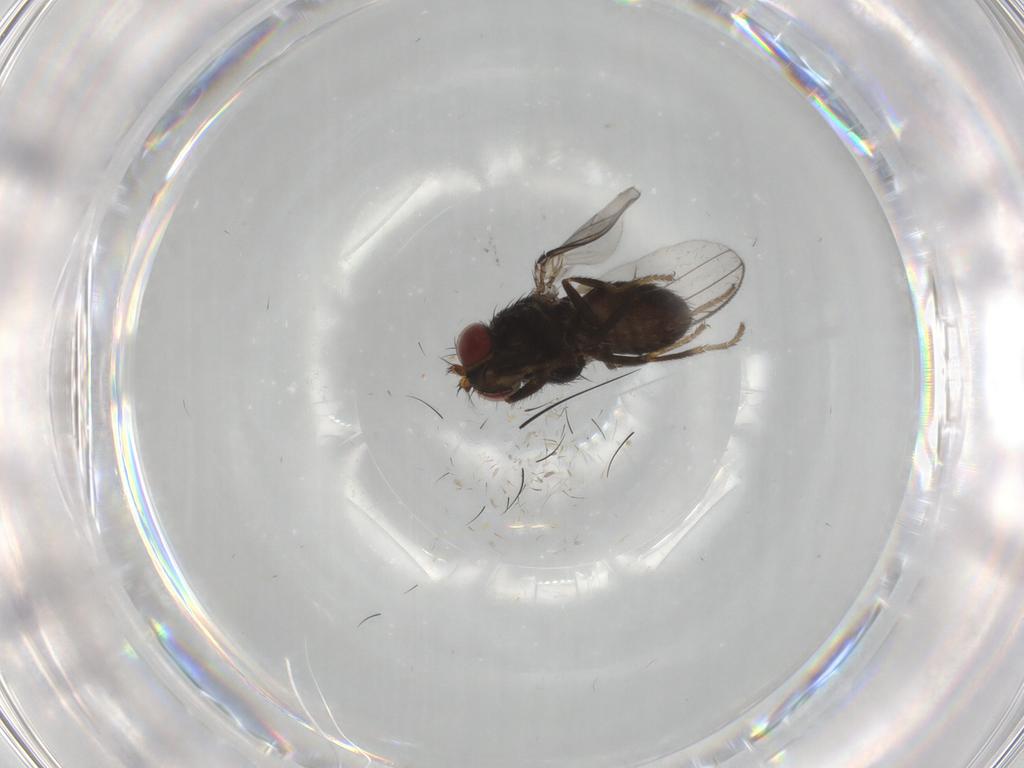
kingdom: Animalia
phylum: Arthropoda
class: Insecta
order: Diptera
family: Ceratopogonidae
